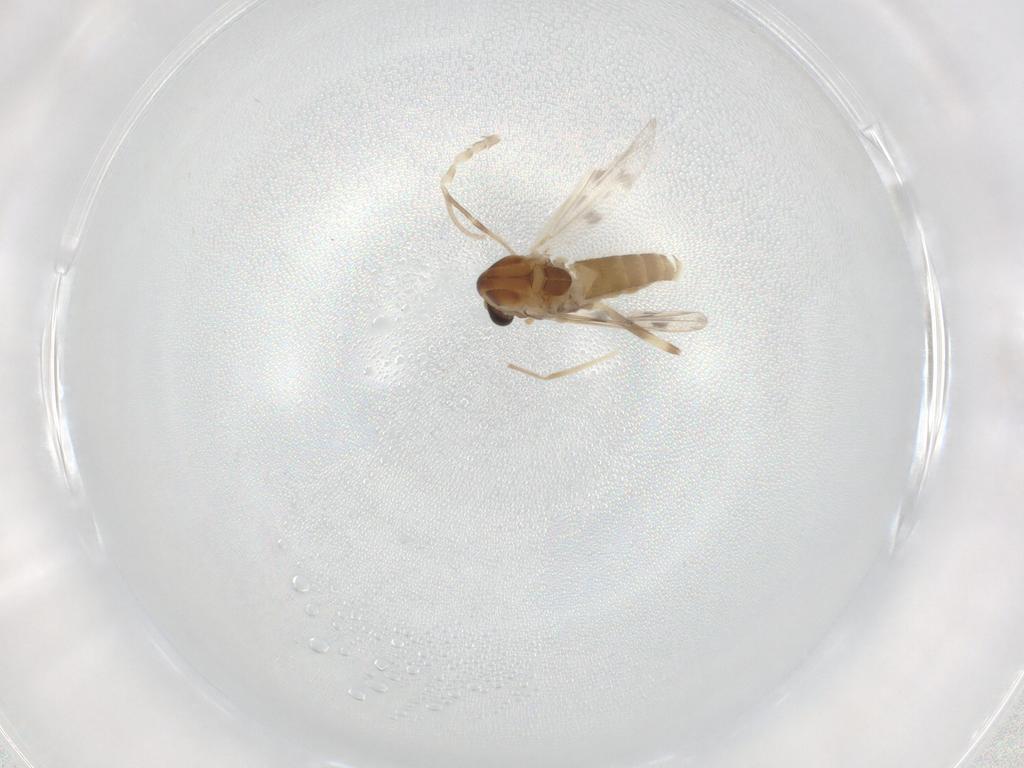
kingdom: Animalia
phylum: Arthropoda
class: Insecta
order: Diptera
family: Chironomidae
